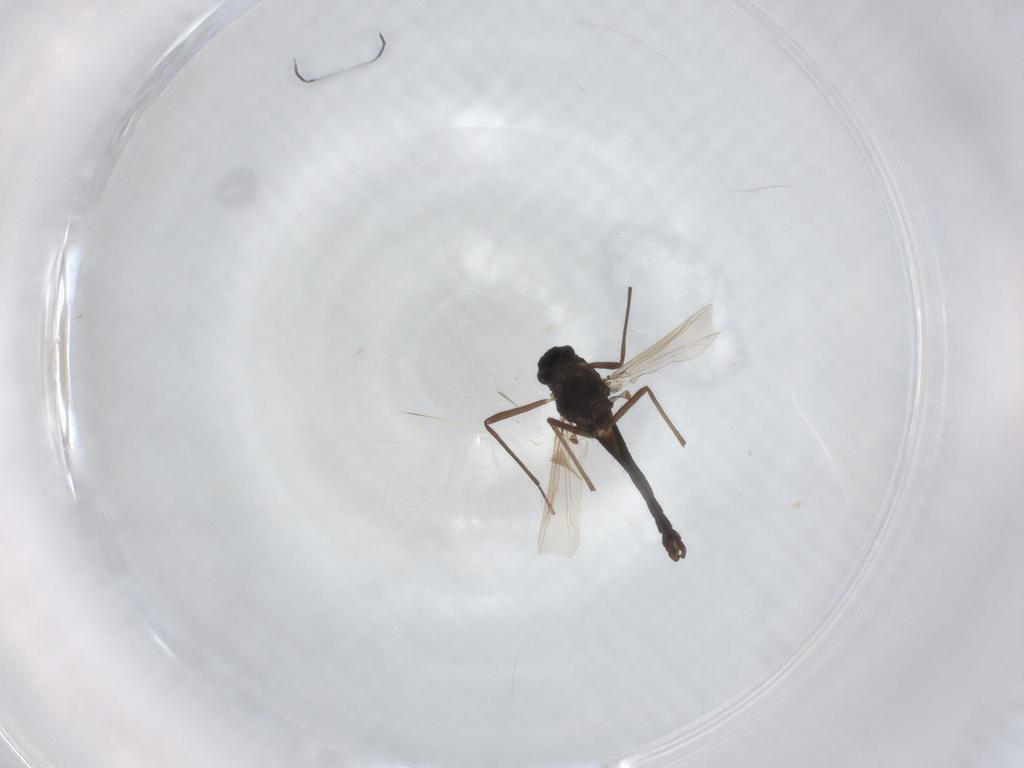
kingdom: Animalia
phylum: Arthropoda
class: Insecta
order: Diptera
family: Chironomidae
